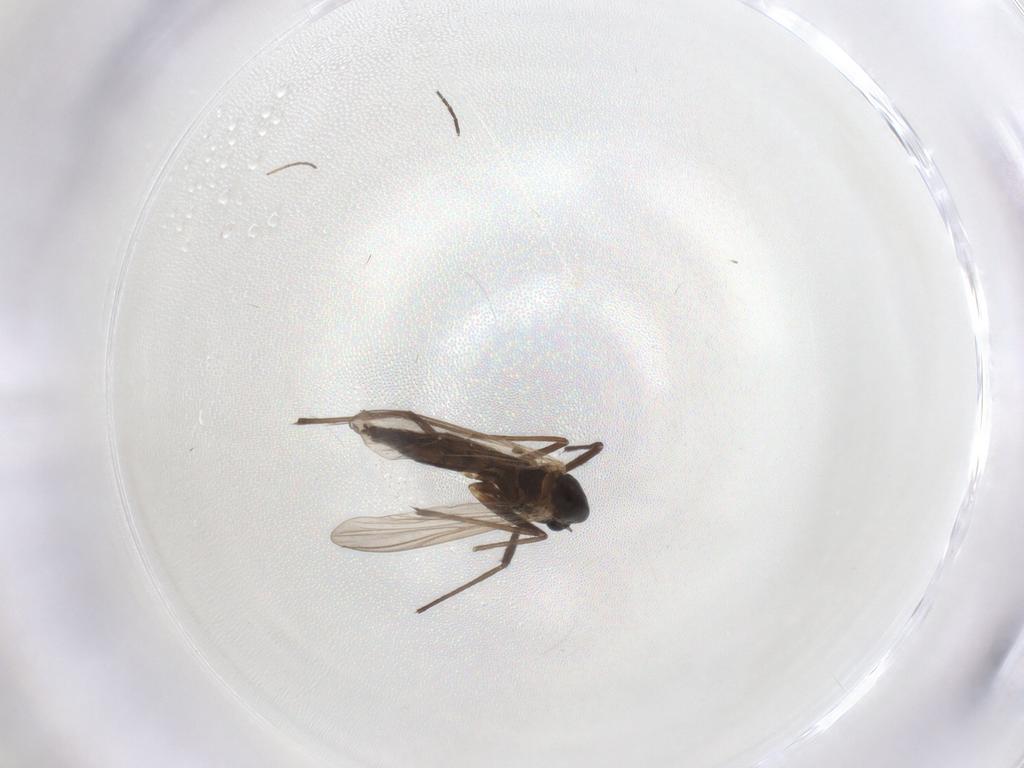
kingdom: Animalia
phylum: Arthropoda
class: Insecta
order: Diptera
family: Chironomidae
